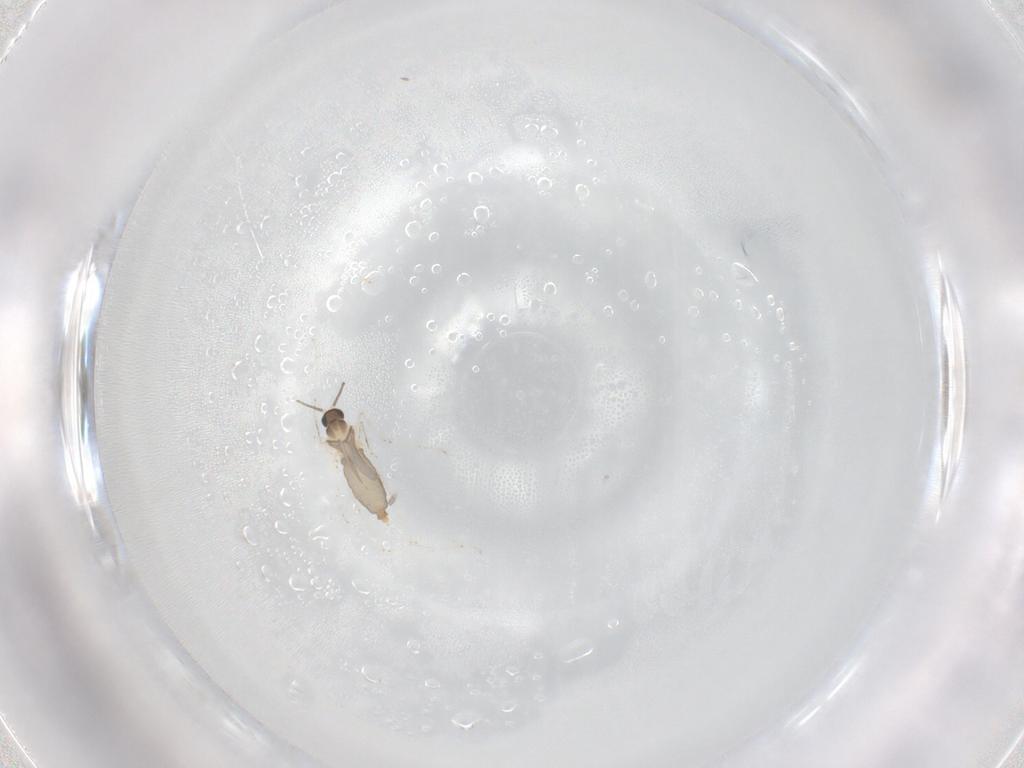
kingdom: Animalia
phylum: Arthropoda
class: Insecta
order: Diptera
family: Ceratopogonidae
